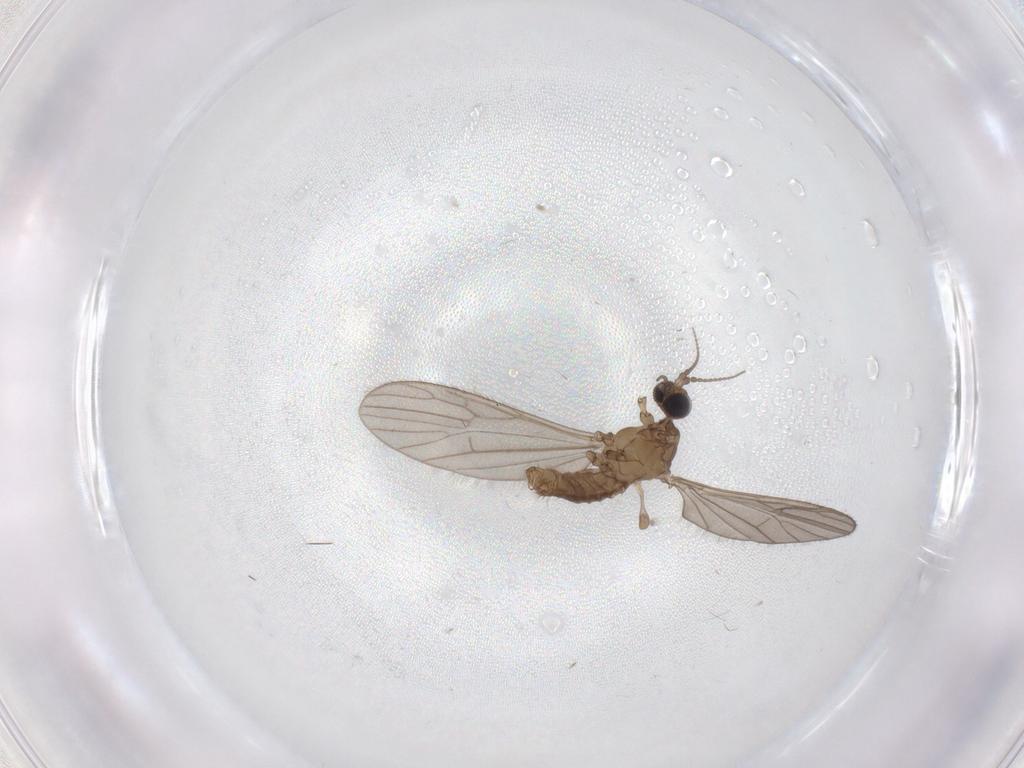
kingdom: Animalia
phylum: Arthropoda
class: Insecta
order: Diptera
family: Limoniidae
